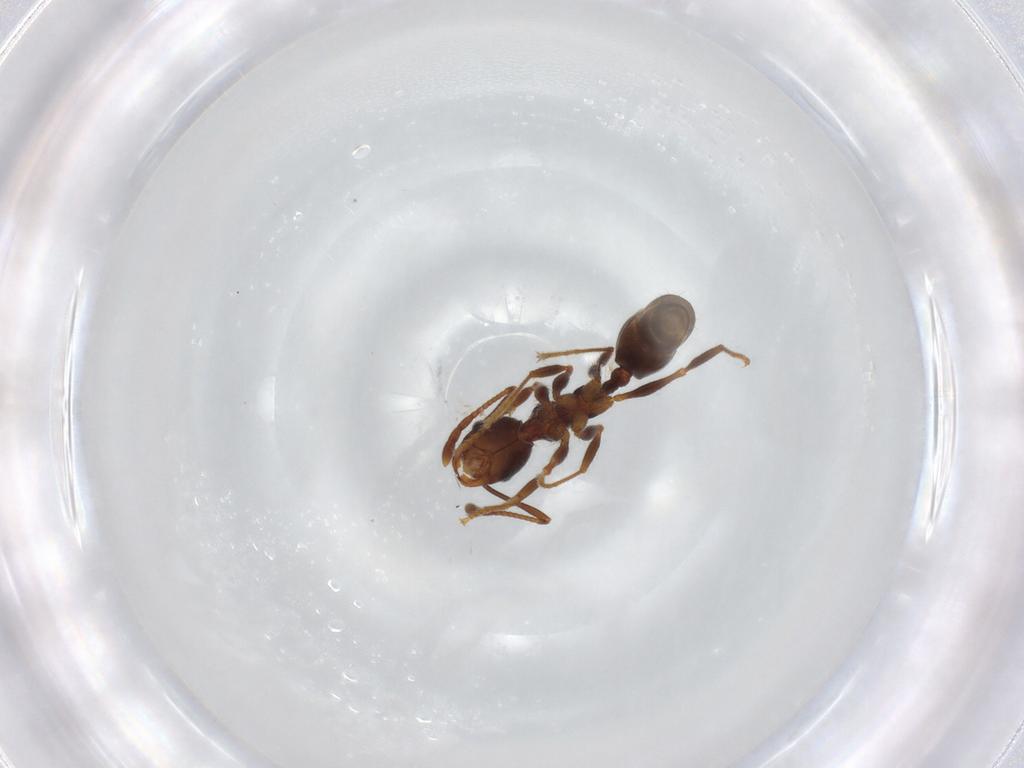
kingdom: Animalia
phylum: Arthropoda
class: Insecta
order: Hymenoptera
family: Formicidae
